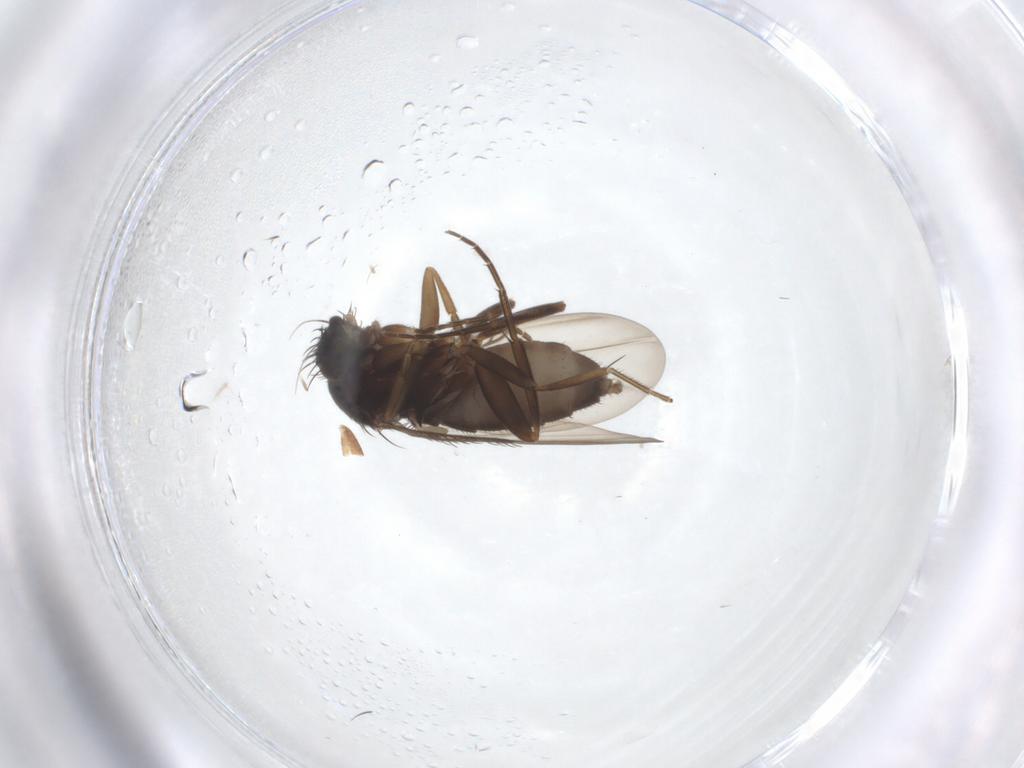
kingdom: Animalia
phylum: Arthropoda
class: Insecta
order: Diptera
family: Phoridae
